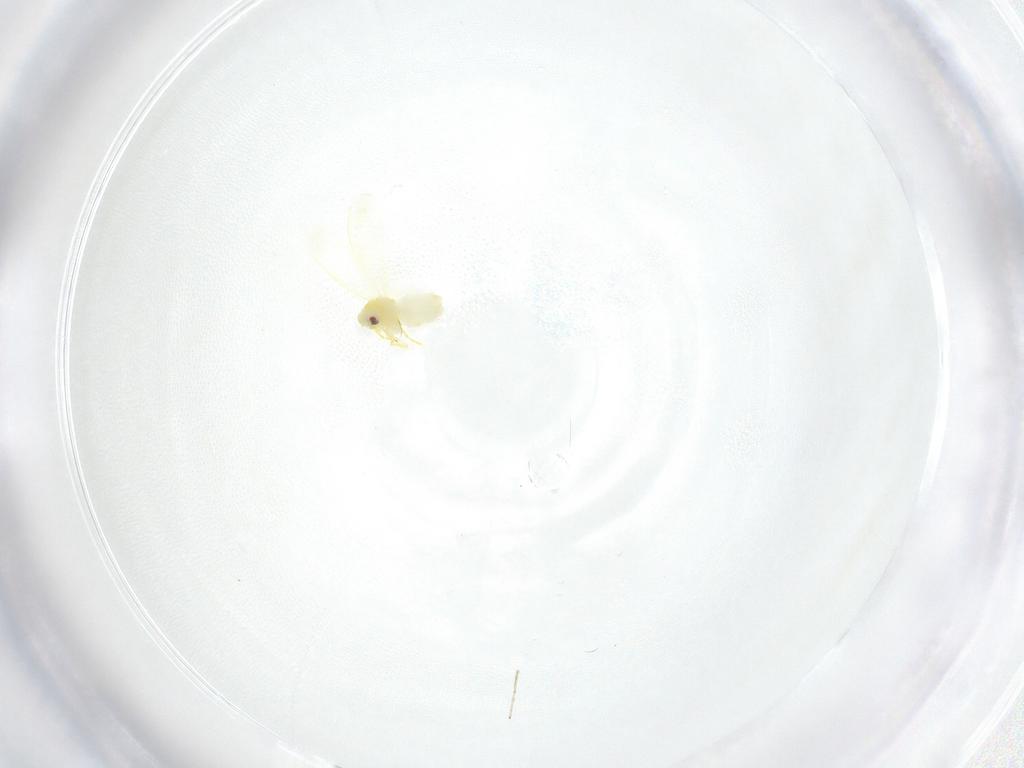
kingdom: Animalia
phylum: Arthropoda
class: Insecta
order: Hemiptera
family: Aleyrodidae
